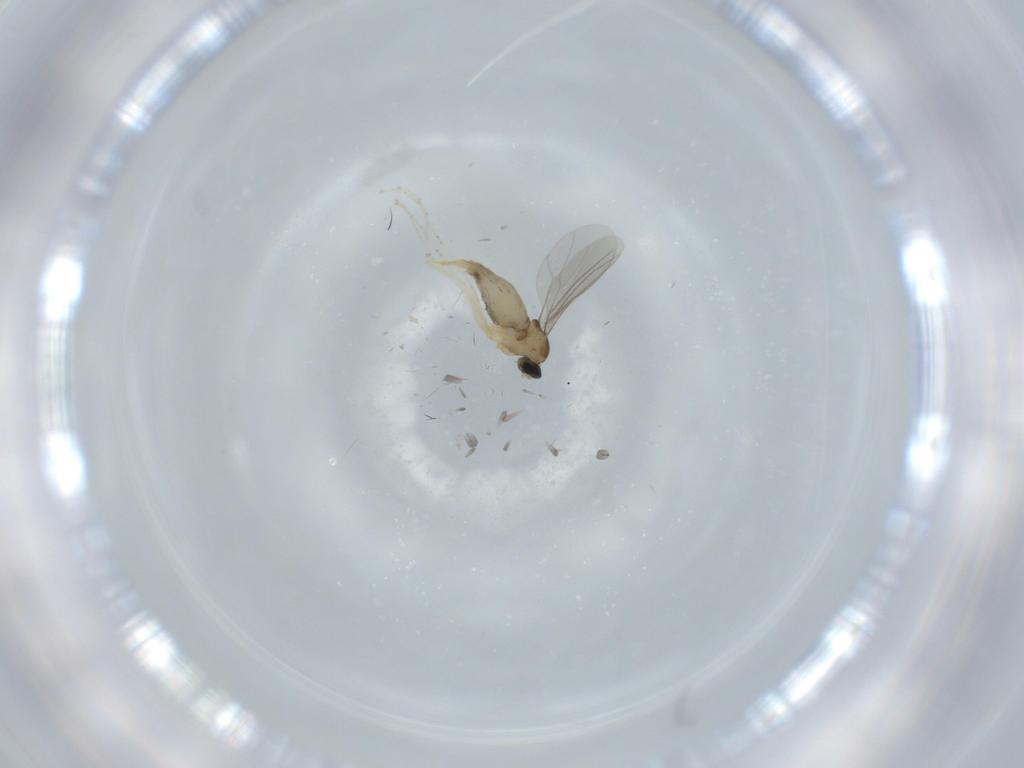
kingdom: Animalia
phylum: Arthropoda
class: Insecta
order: Diptera
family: Cecidomyiidae
